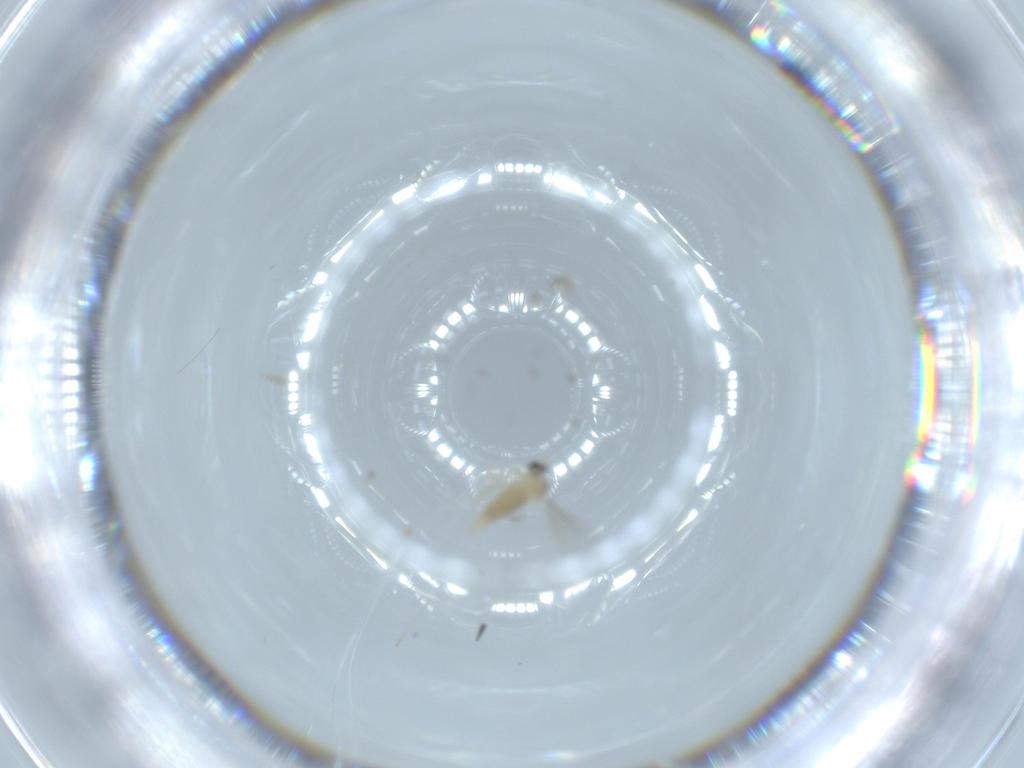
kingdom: Animalia
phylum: Arthropoda
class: Insecta
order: Diptera
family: Cecidomyiidae
